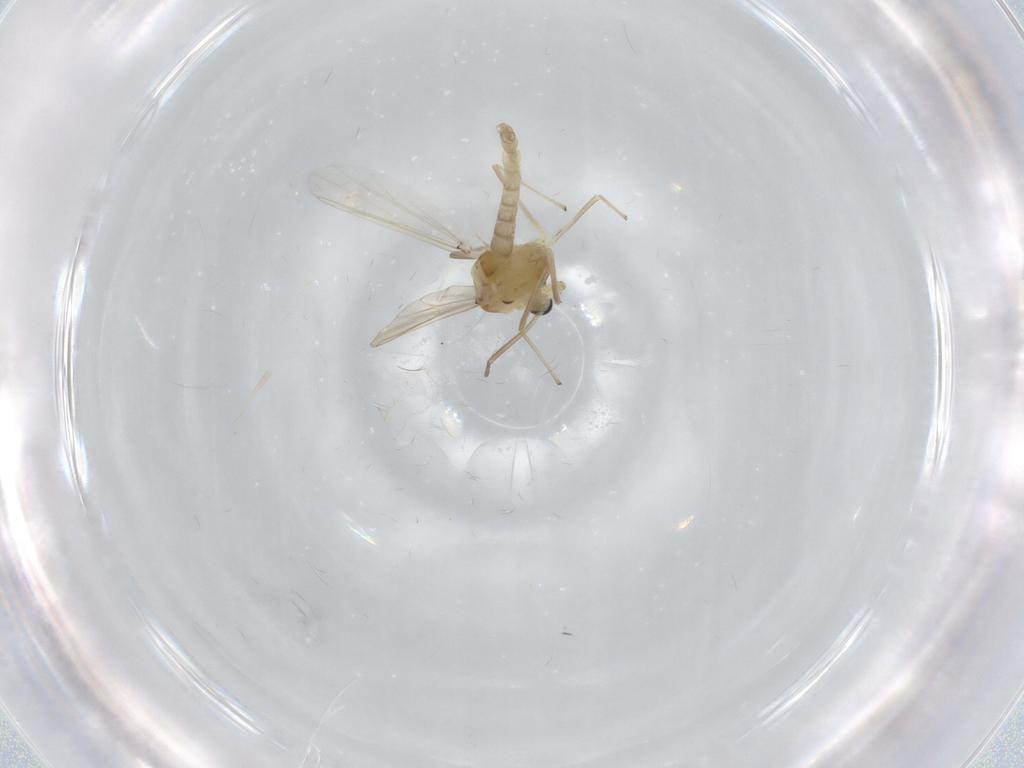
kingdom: Animalia
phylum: Arthropoda
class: Insecta
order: Diptera
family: Chironomidae
